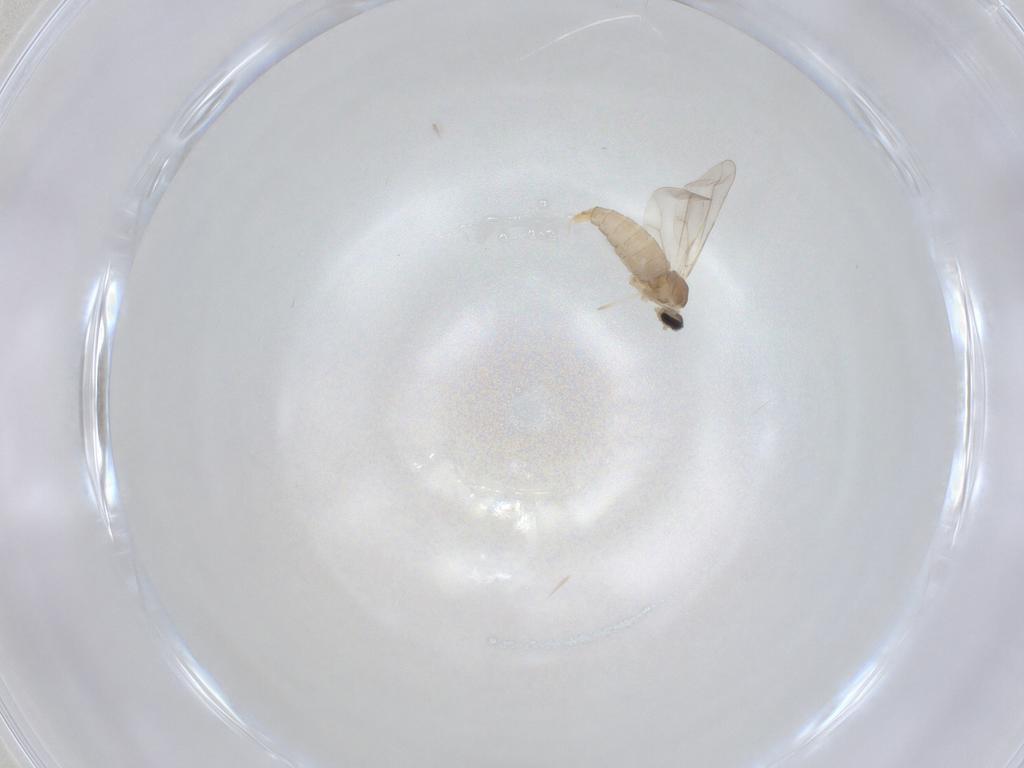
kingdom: Animalia
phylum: Arthropoda
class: Insecta
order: Diptera
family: Cecidomyiidae
